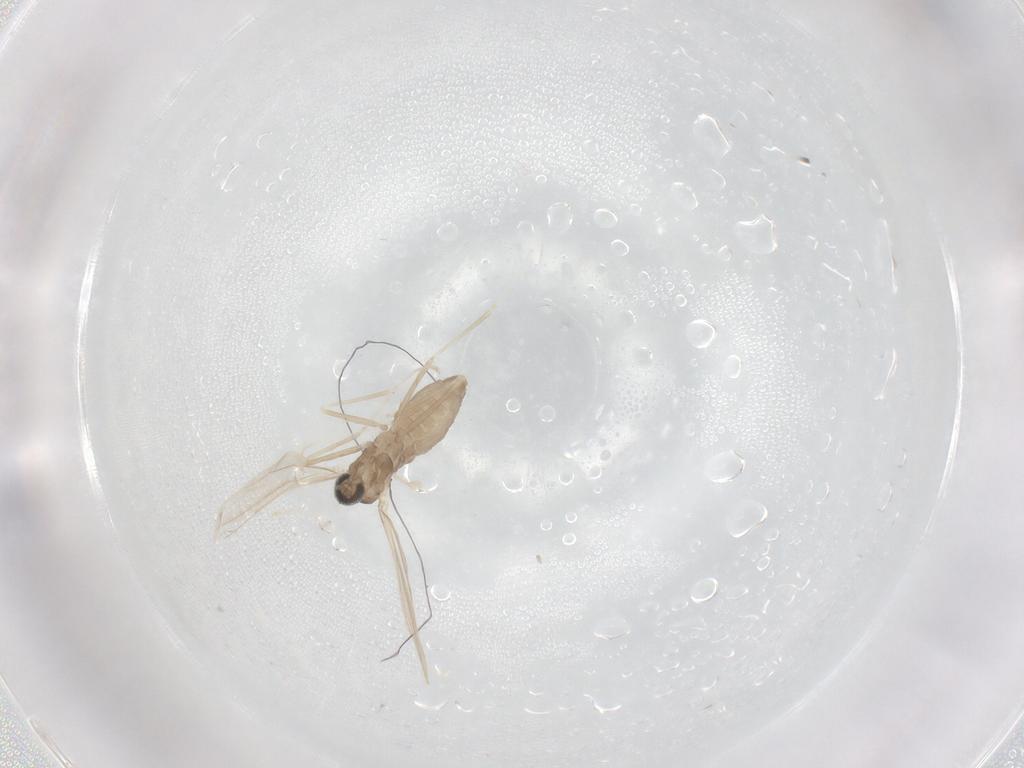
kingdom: Animalia
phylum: Arthropoda
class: Insecta
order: Diptera
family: Cecidomyiidae
